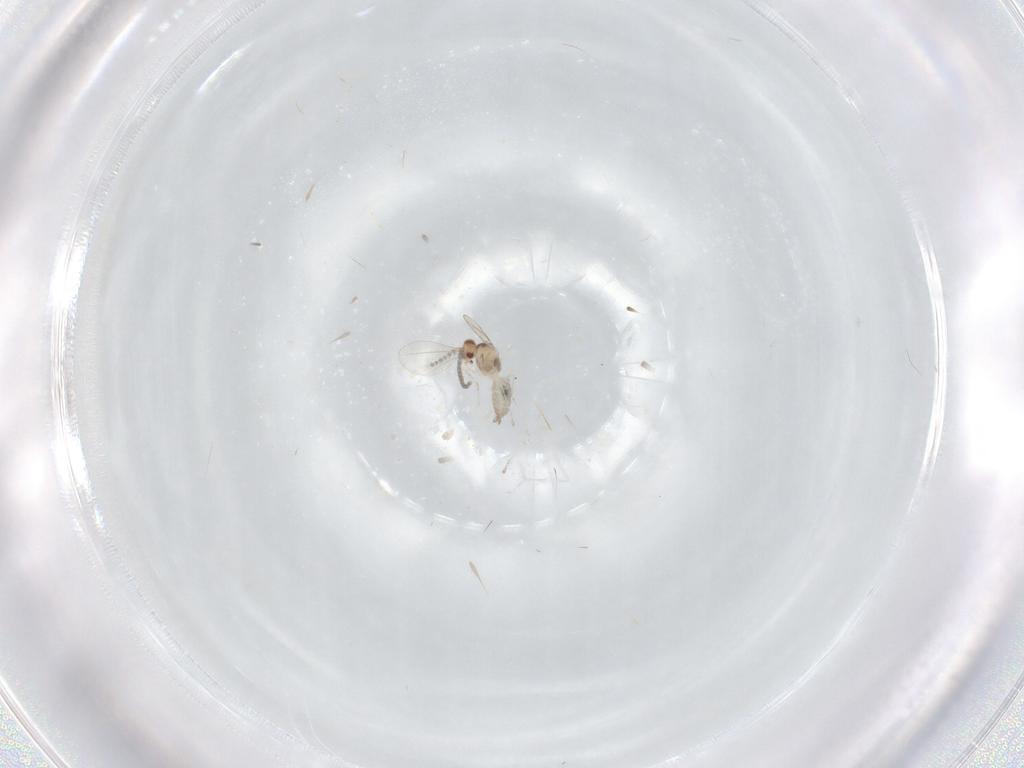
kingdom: Animalia
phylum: Arthropoda
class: Insecta
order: Diptera
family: Cecidomyiidae
